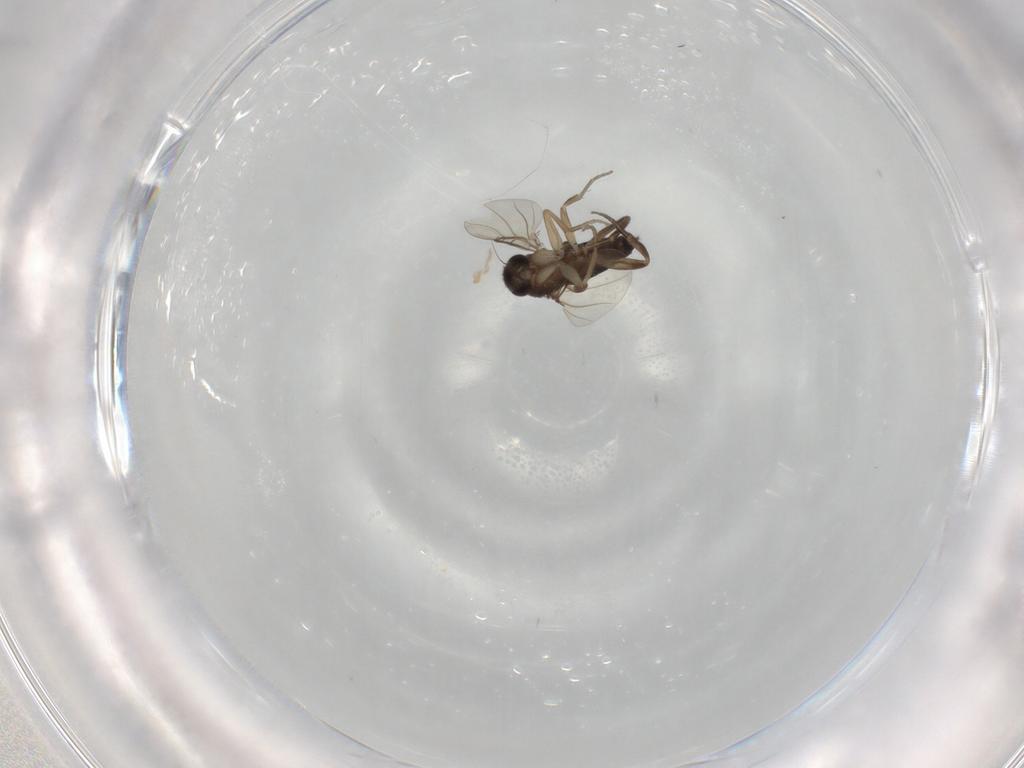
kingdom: Animalia
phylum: Arthropoda
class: Insecta
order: Diptera
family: Phoridae
